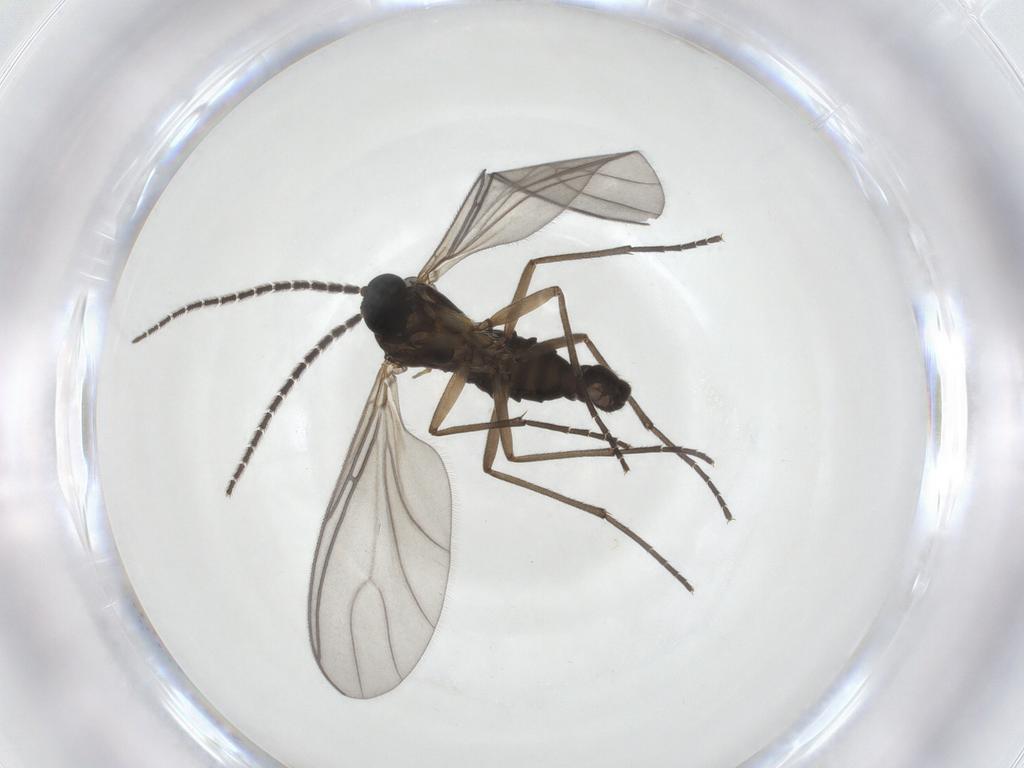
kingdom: Animalia
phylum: Arthropoda
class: Insecta
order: Diptera
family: Sciaridae
